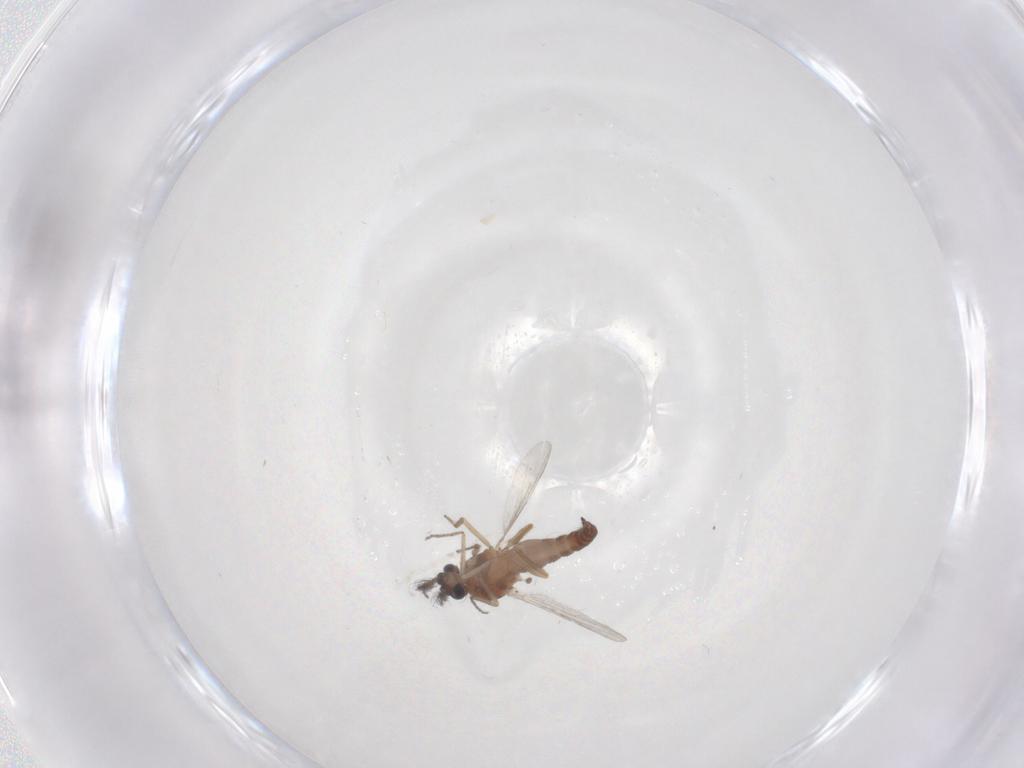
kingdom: Animalia
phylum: Arthropoda
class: Insecta
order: Diptera
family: Ceratopogonidae
